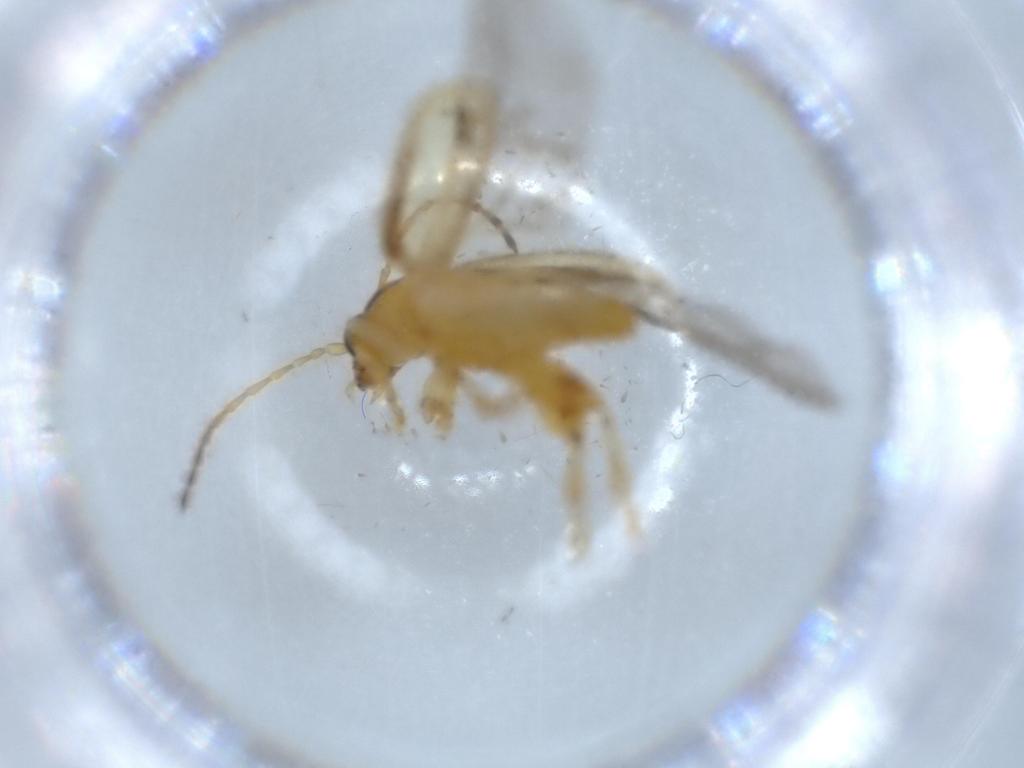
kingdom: Animalia
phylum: Arthropoda
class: Insecta
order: Coleoptera
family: Chrysomelidae
